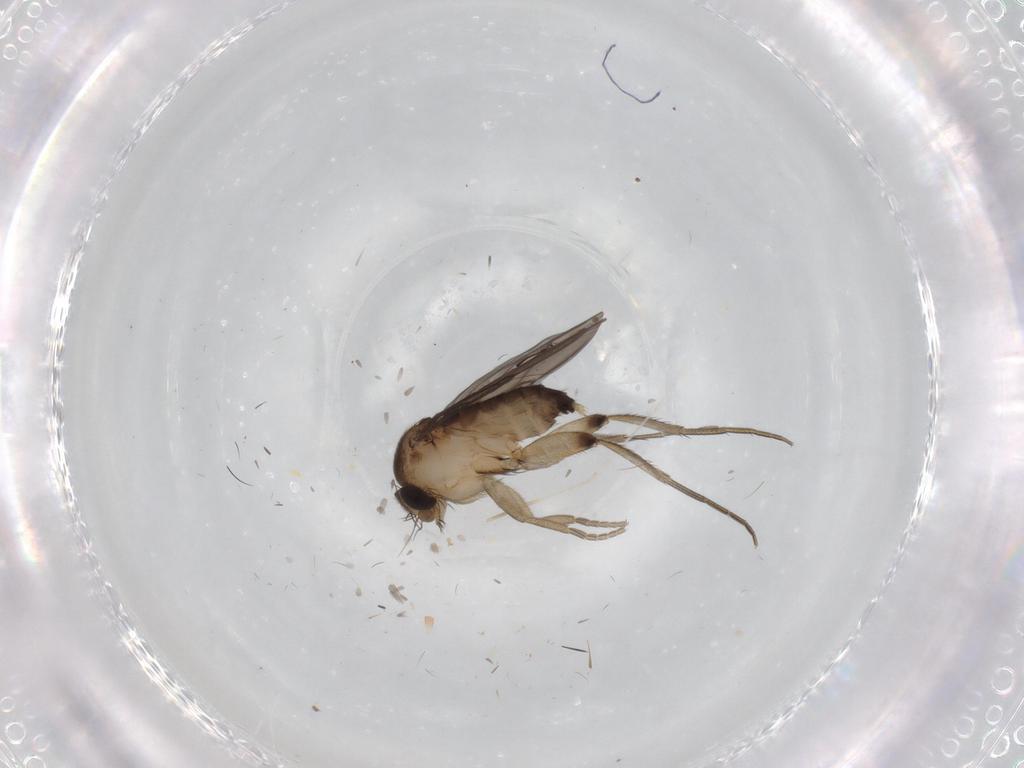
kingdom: Animalia
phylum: Arthropoda
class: Insecta
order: Diptera
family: Phoridae
